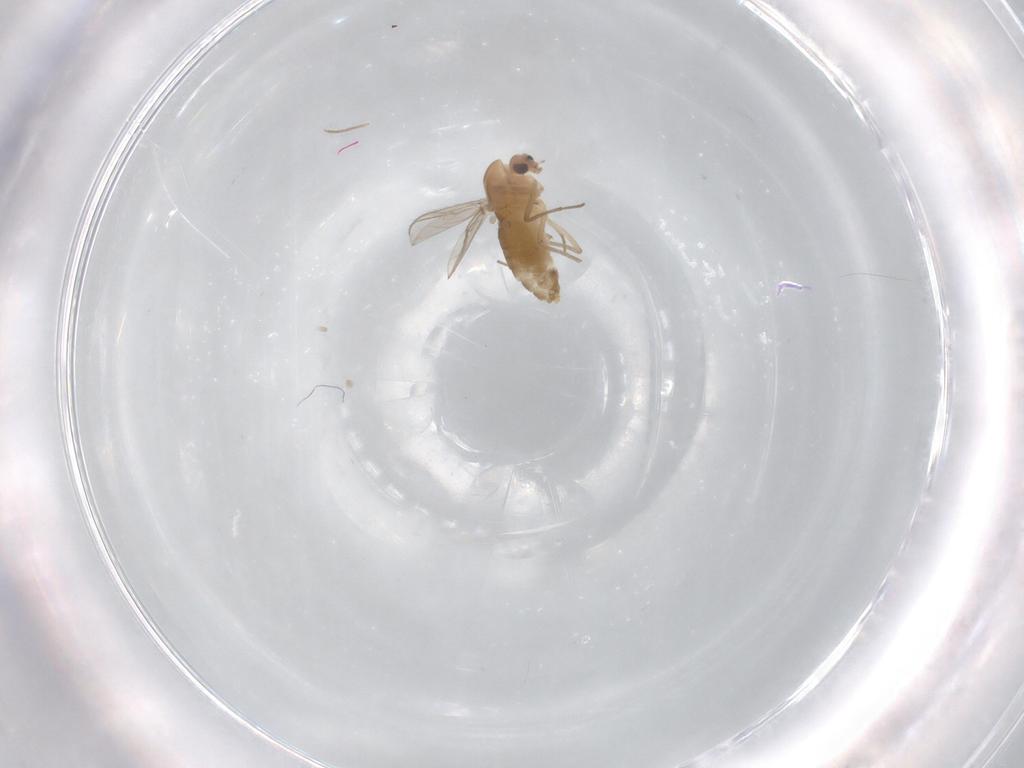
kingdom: Animalia
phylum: Arthropoda
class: Insecta
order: Diptera
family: Chironomidae
